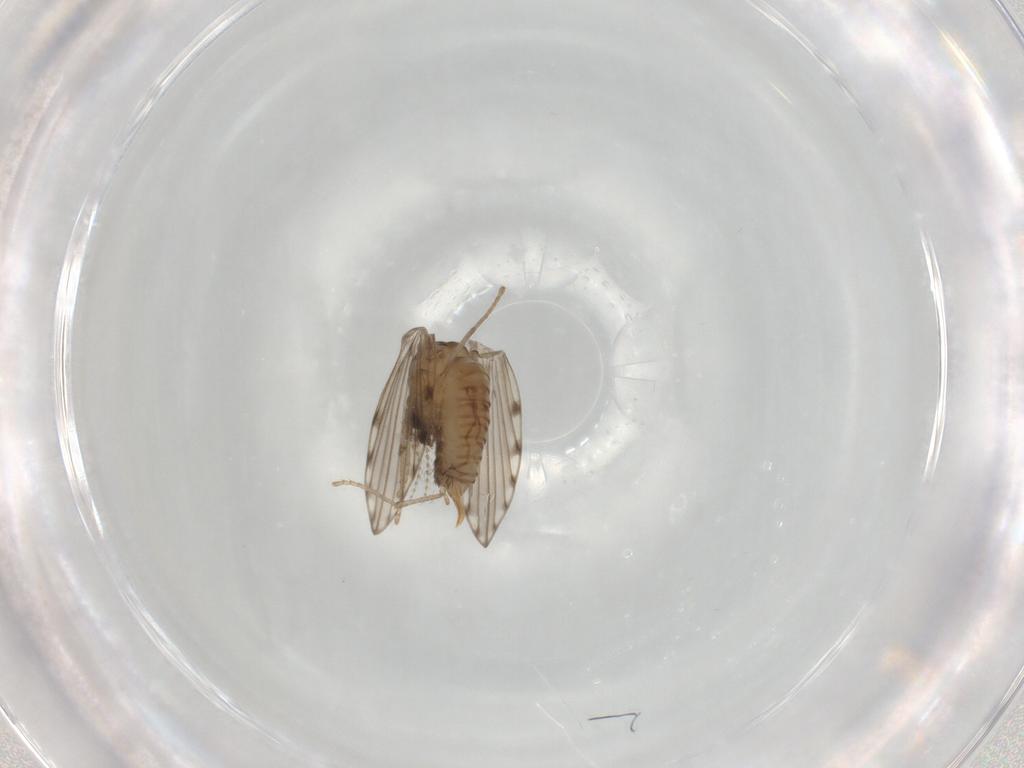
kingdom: Animalia
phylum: Arthropoda
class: Insecta
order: Diptera
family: Psychodidae
